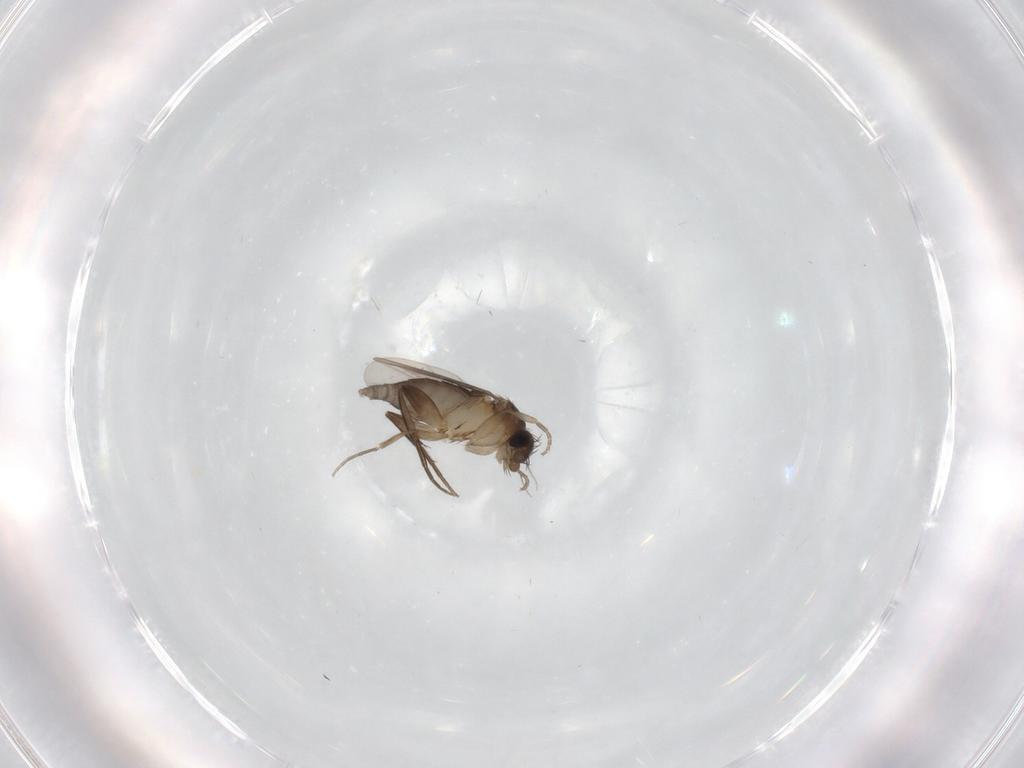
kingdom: Animalia
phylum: Arthropoda
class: Insecta
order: Diptera
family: Phoridae
